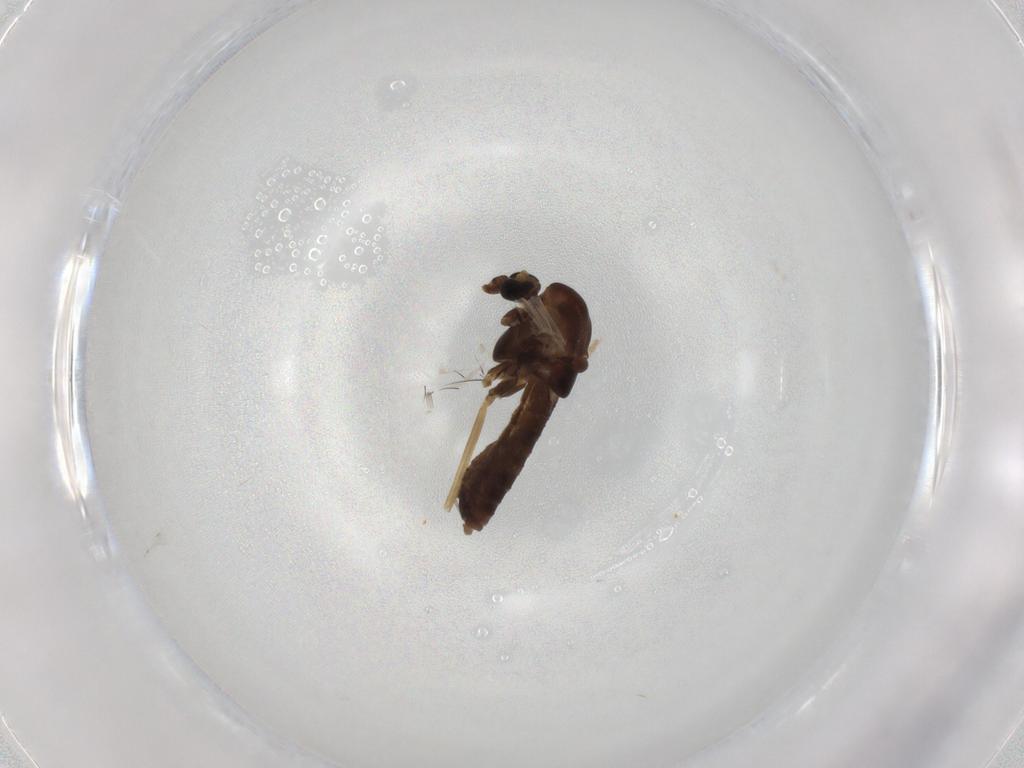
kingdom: Animalia
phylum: Arthropoda
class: Insecta
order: Diptera
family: Chironomidae
